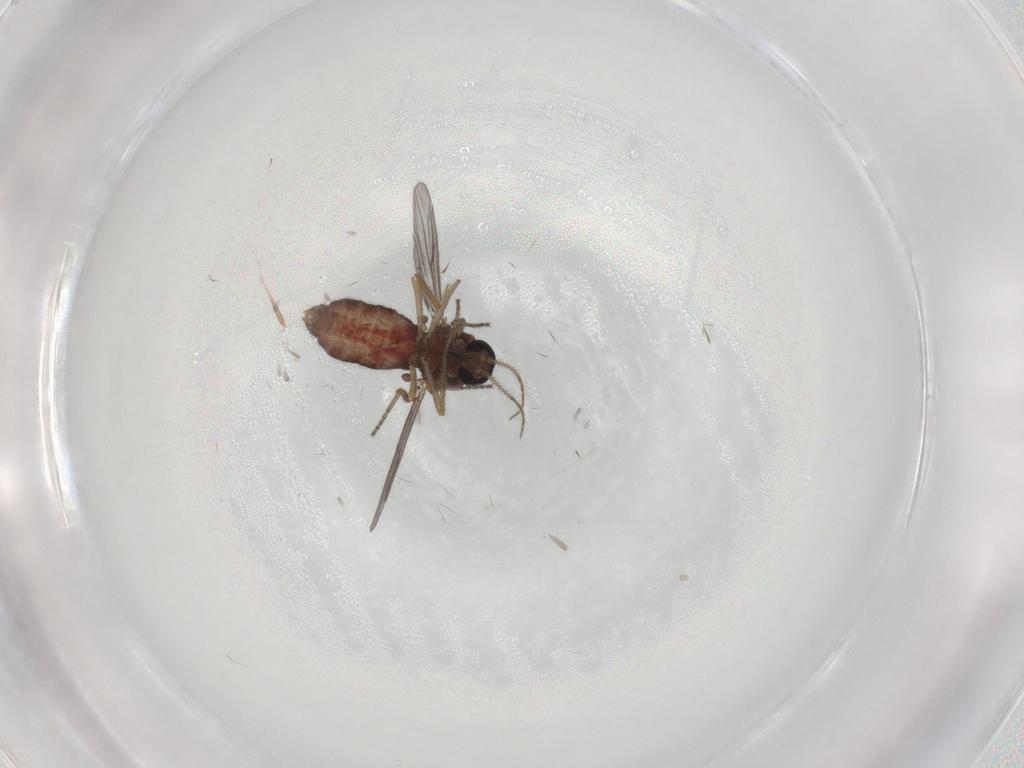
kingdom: Animalia
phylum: Arthropoda
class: Insecta
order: Diptera
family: Ceratopogonidae
